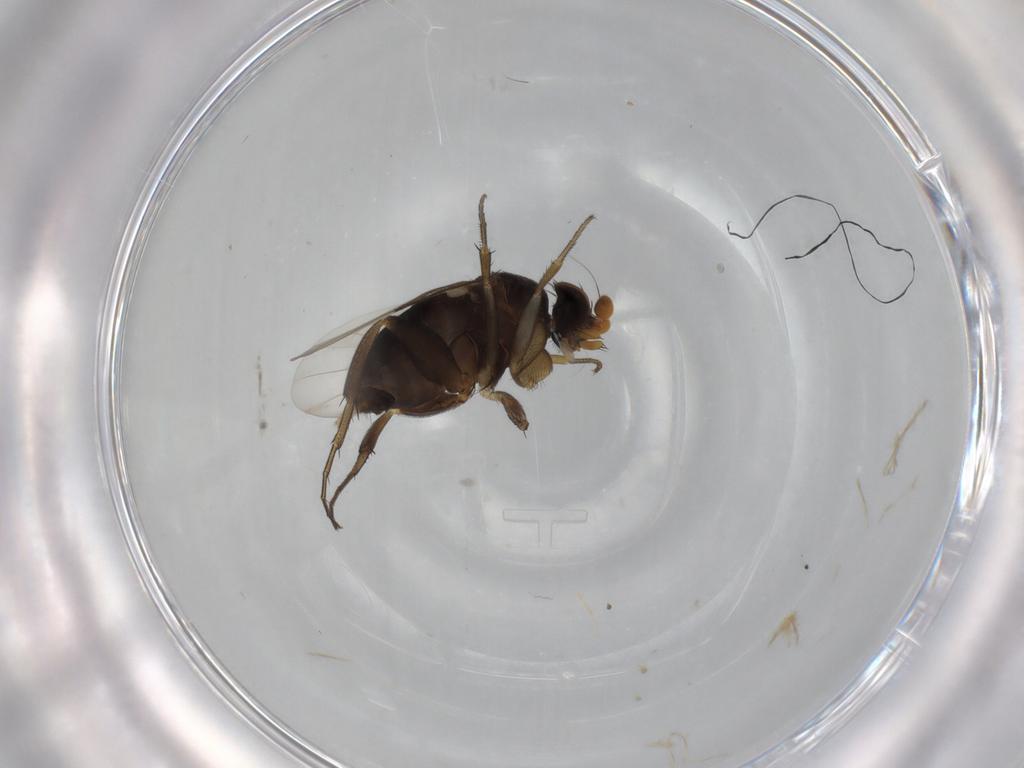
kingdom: Animalia
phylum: Arthropoda
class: Insecta
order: Diptera
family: Phoridae
